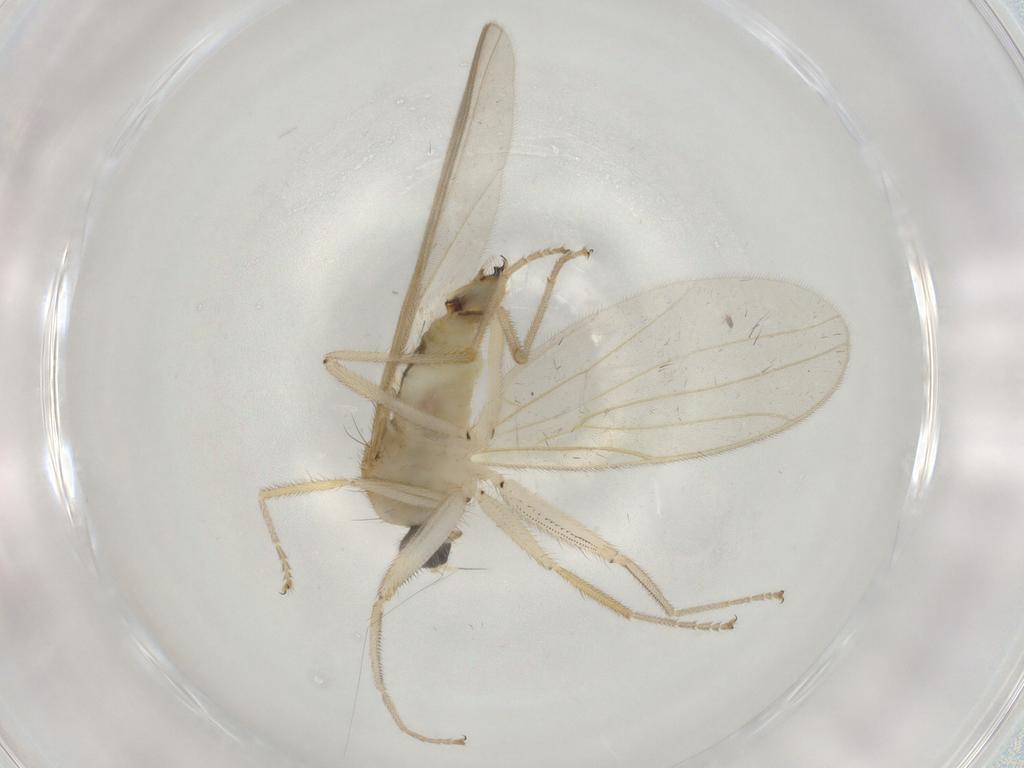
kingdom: Animalia
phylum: Arthropoda
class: Insecta
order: Diptera
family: Hybotidae
